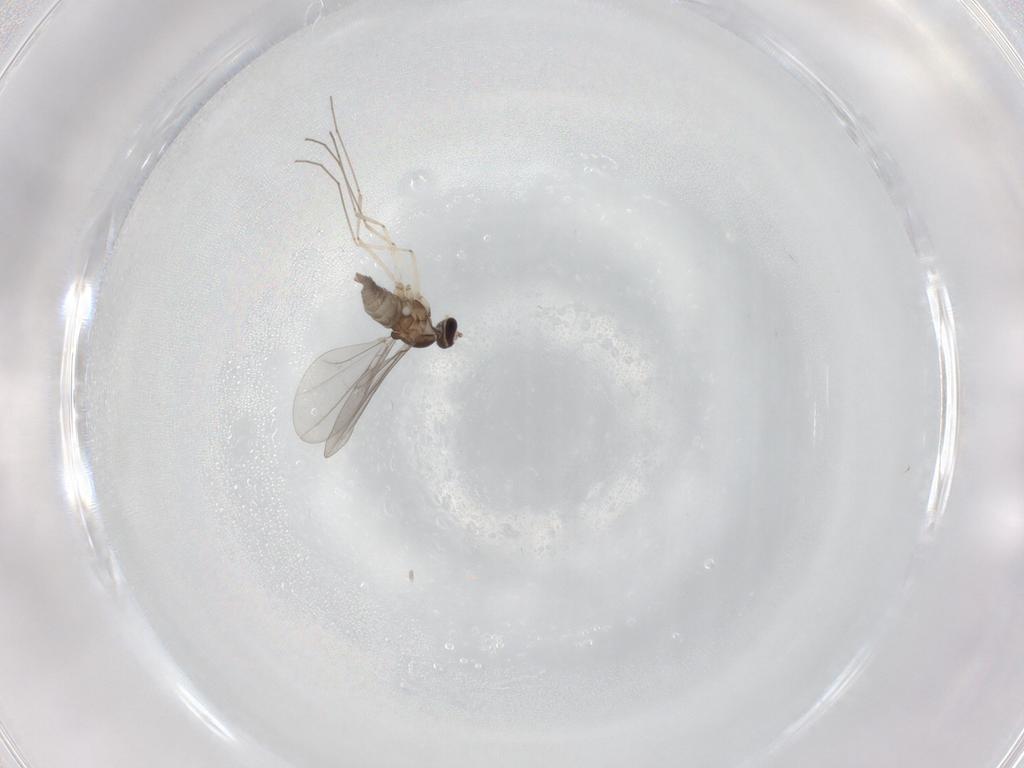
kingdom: Animalia
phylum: Arthropoda
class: Insecta
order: Diptera
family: Cecidomyiidae
